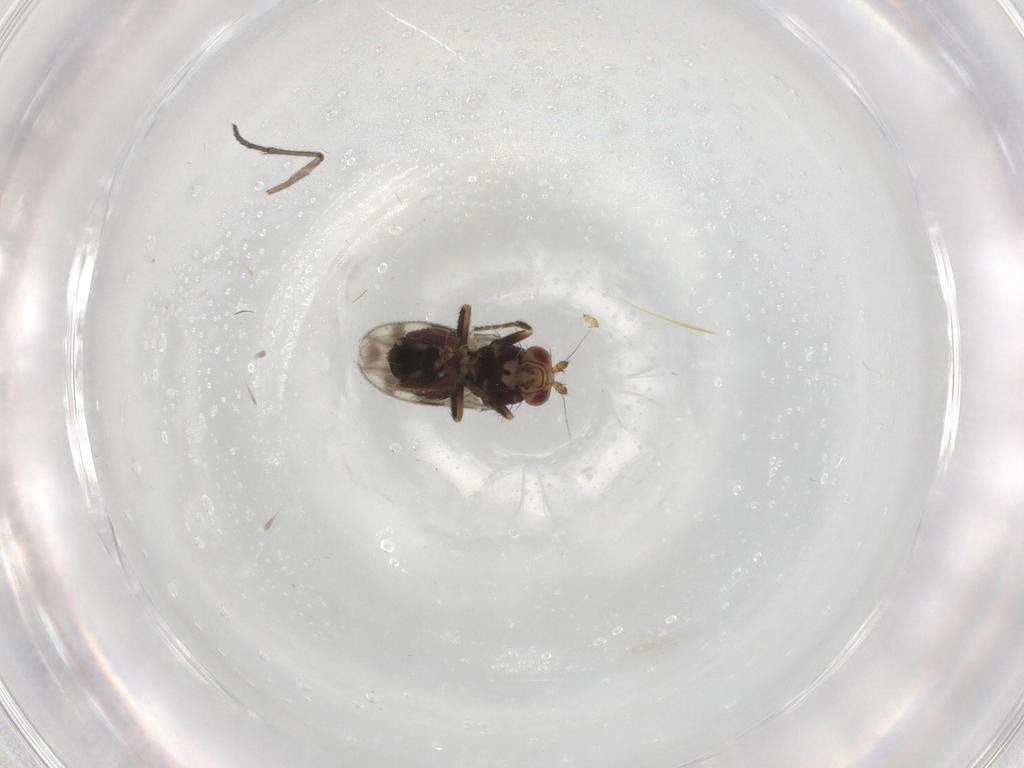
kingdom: Animalia
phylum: Arthropoda
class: Insecta
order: Diptera
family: Sphaeroceridae
